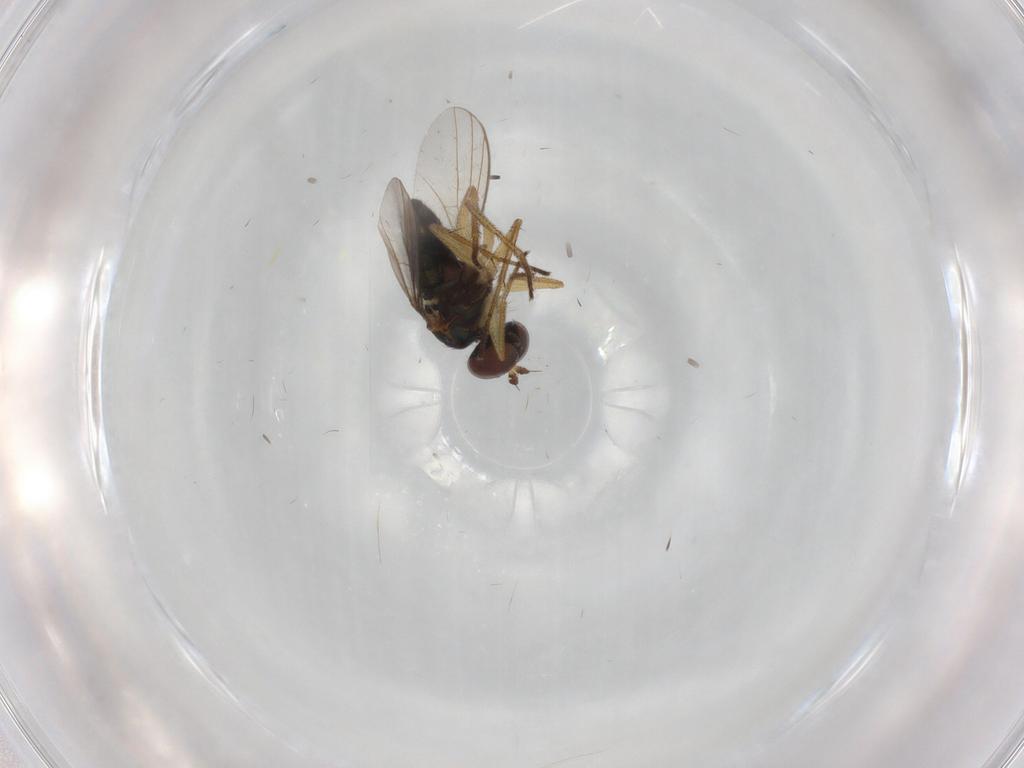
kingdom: Animalia
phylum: Arthropoda
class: Insecta
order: Diptera
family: Cecidomyiidae
